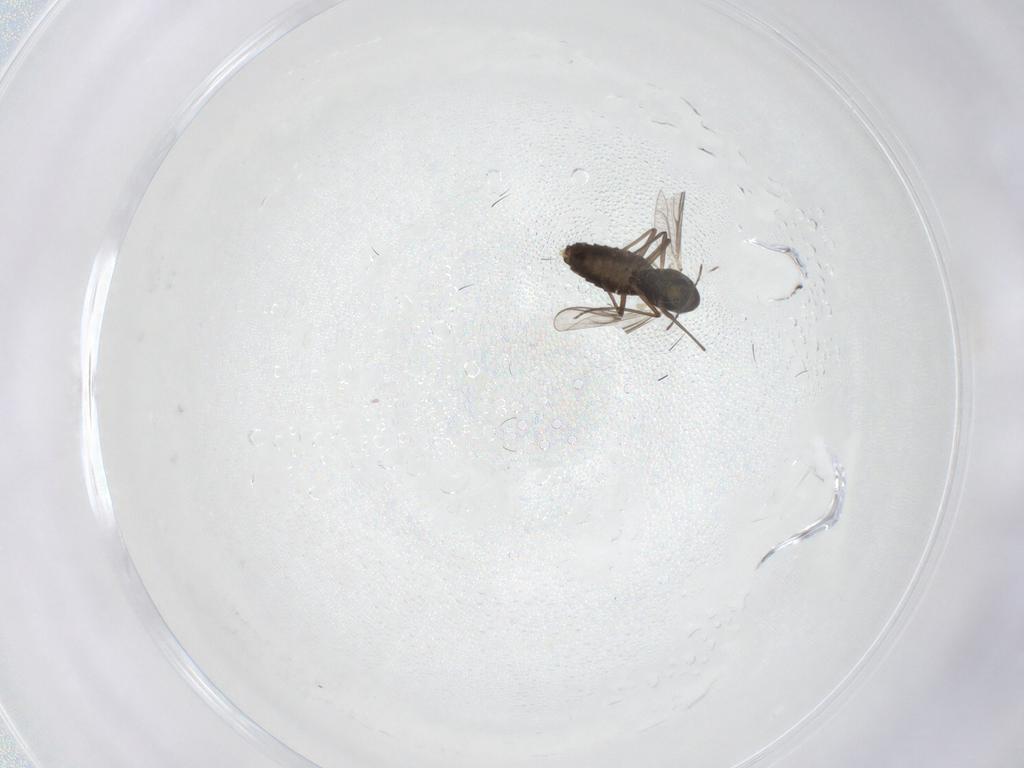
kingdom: Animalia
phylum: Arthropoda
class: Insecta
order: Diptera
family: Chironomidae
